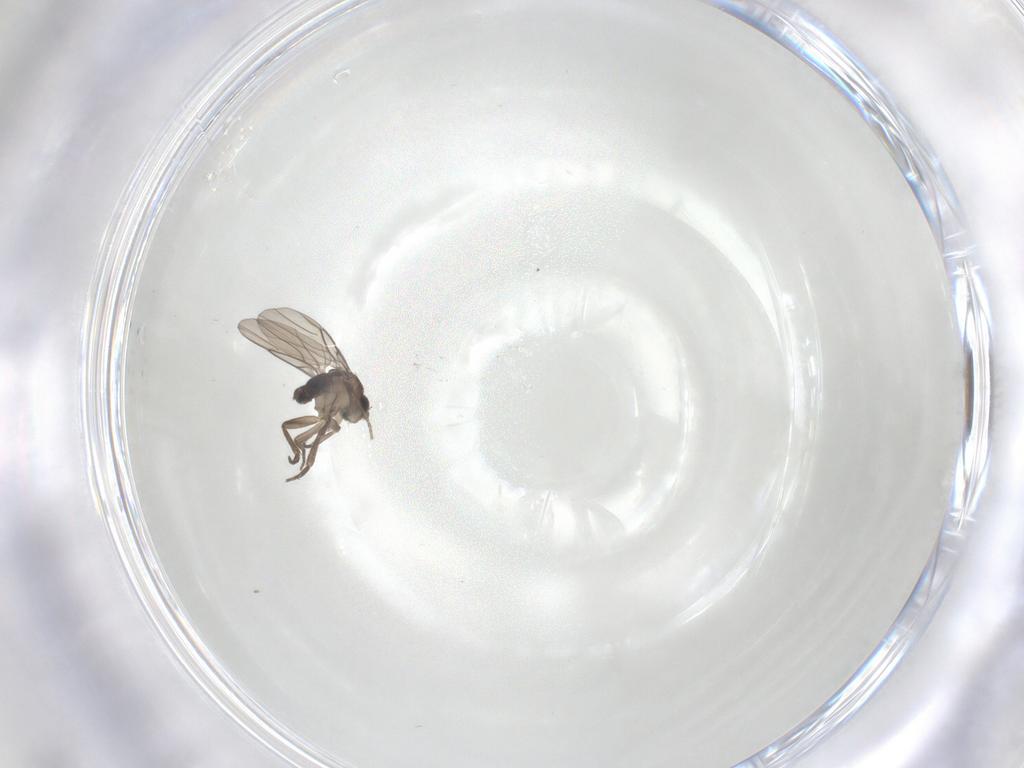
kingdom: Animalia
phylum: Arthropoda
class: Insecta
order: Diptera
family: Phoridae
